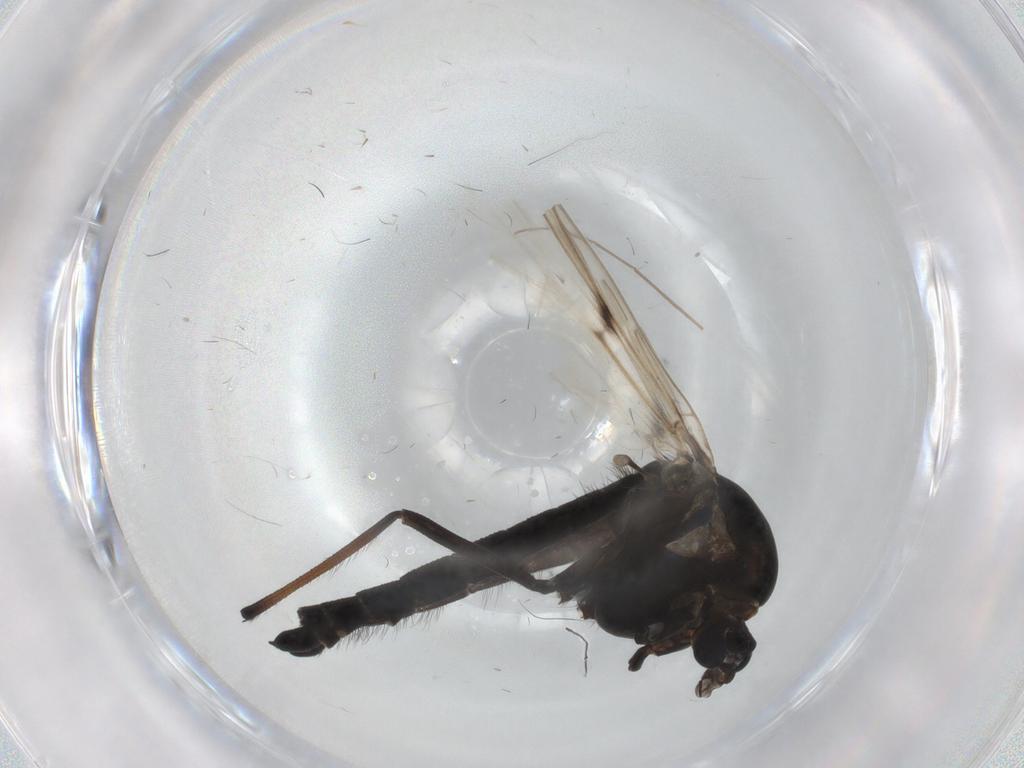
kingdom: Animalia
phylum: Arthropoda
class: Insecta
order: Diptera
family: Chironomidae
